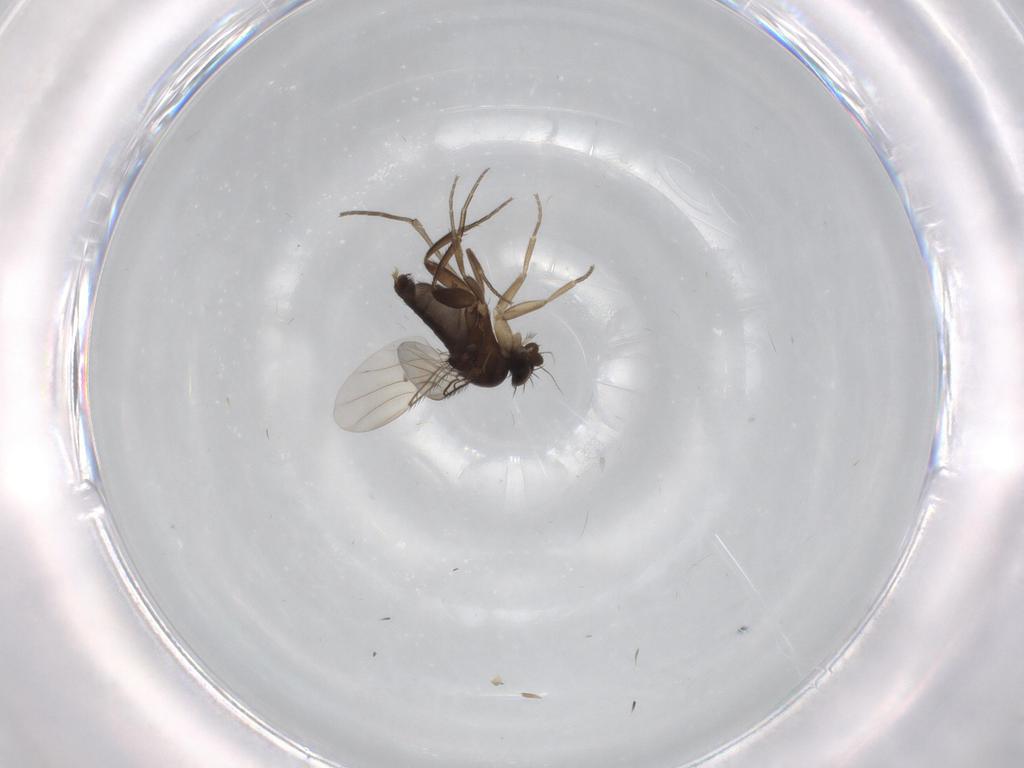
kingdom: Animalia
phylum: Arthropoda
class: Insecta
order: Diptera
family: Phoridae
